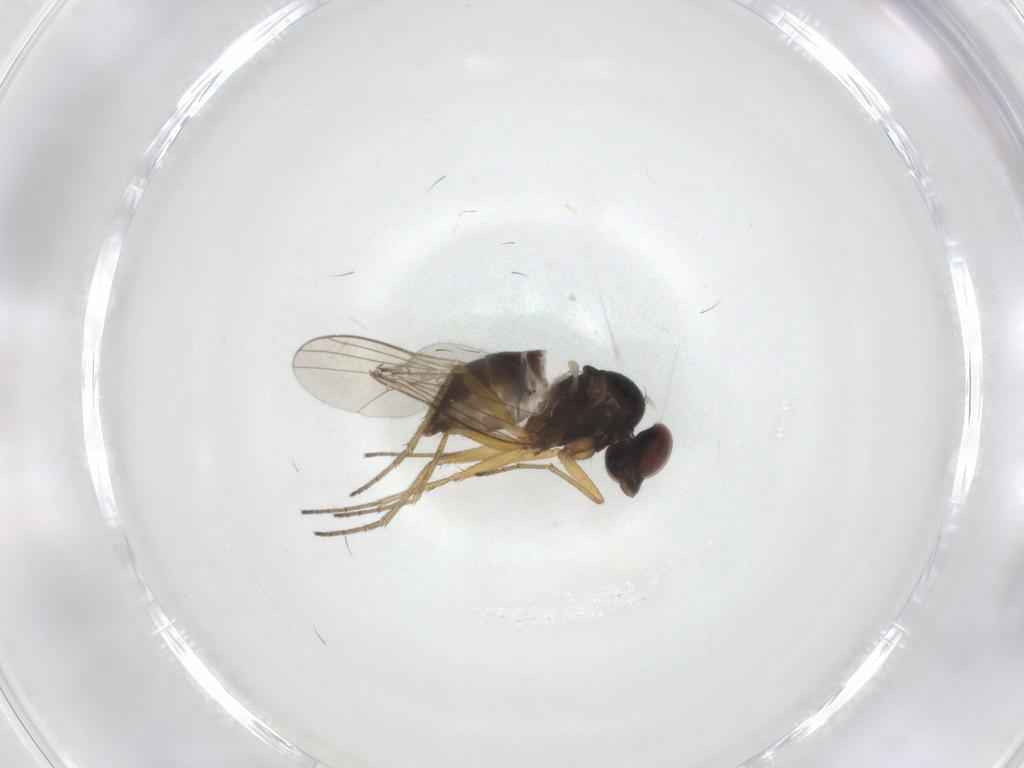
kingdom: Animalia
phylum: Arthropoda
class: Insecta
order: Diptera
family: Dolichopodidae
